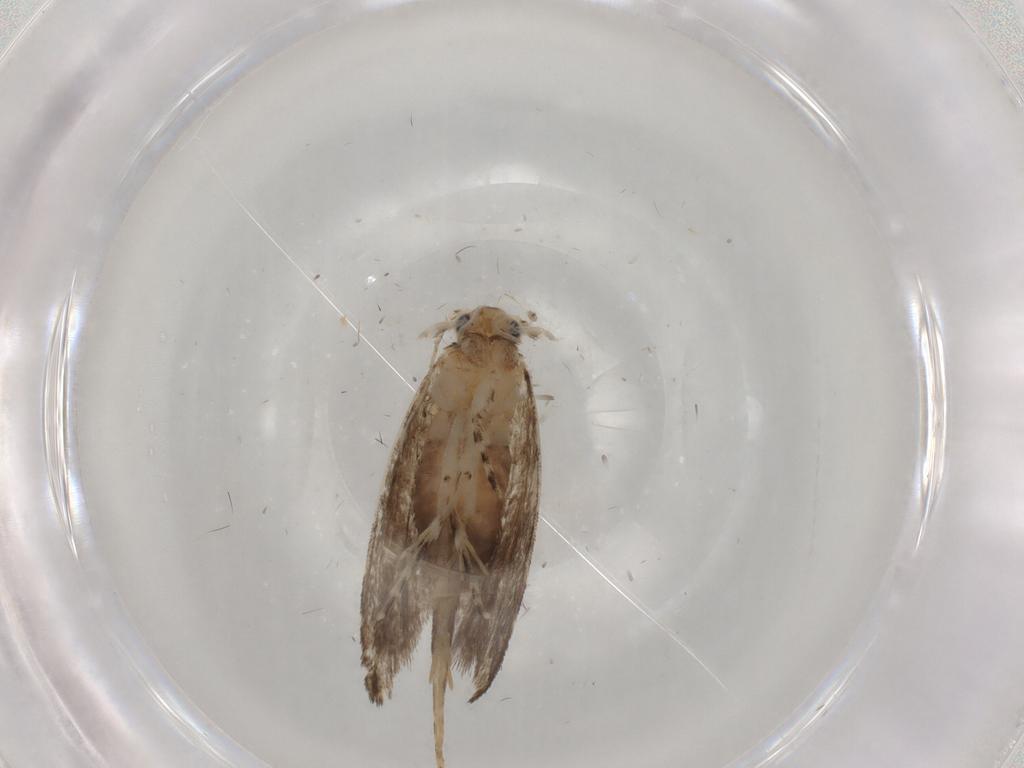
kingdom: Animalia
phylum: Arthropoda
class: Insecta
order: Lepidoptera
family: Tineidae
